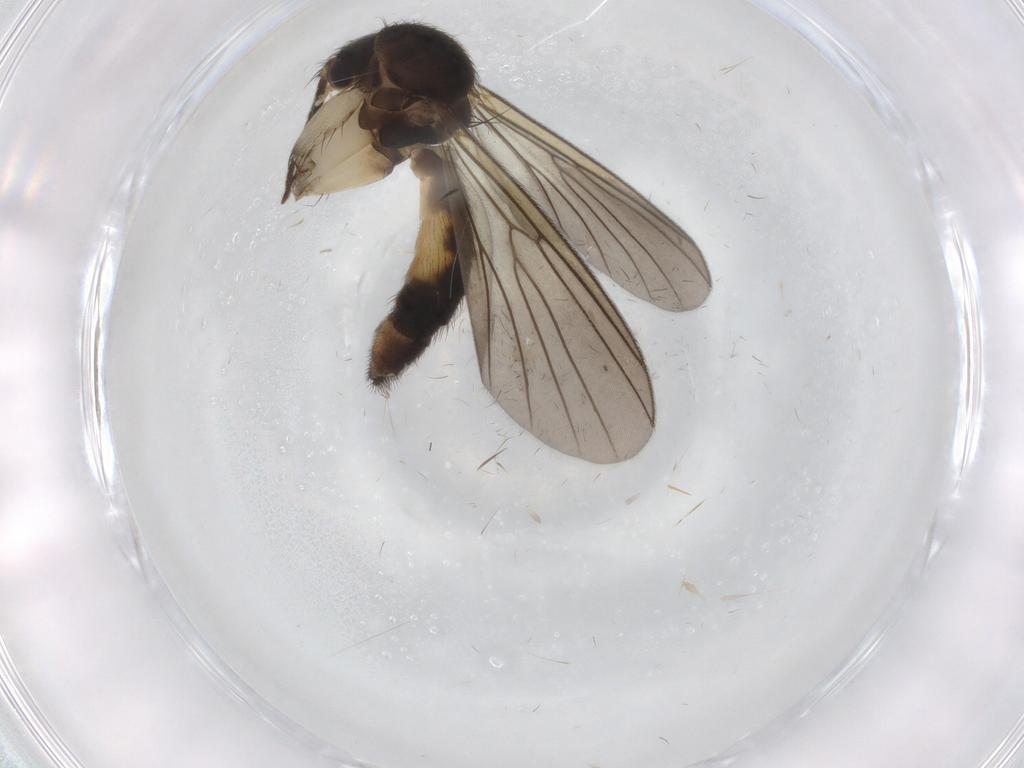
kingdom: Animalia
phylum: Arthropoda
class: Insecta
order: Diptera
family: Mycetophilidae
